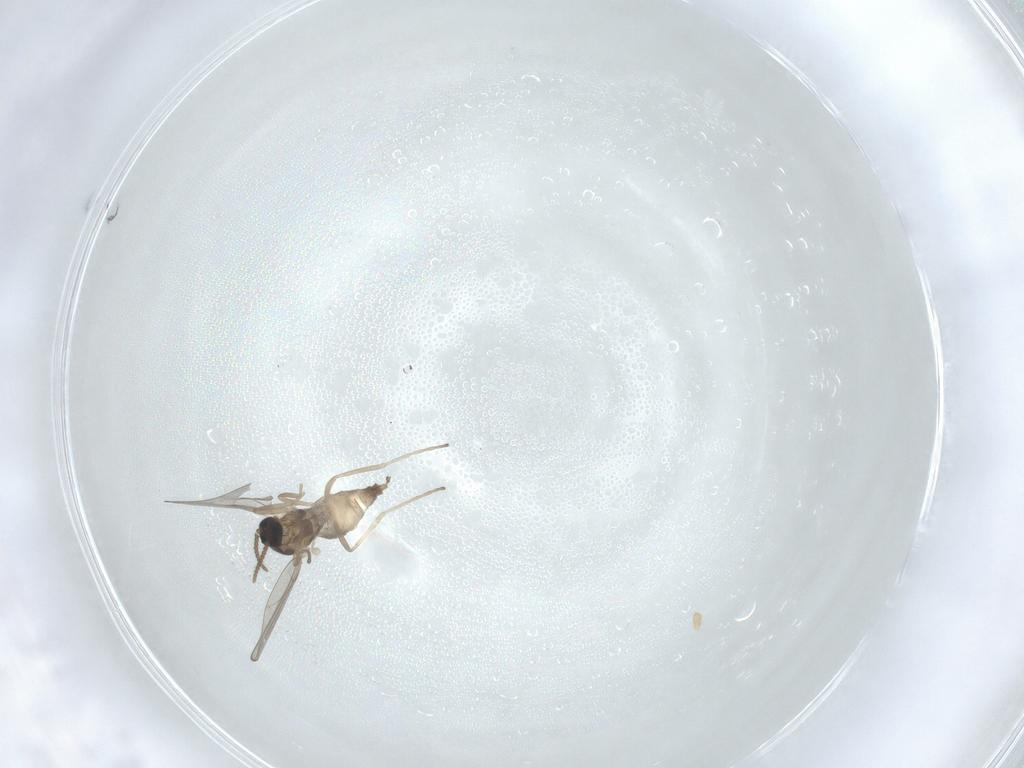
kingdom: Animalia
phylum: Arthropoda
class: Insecta
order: Diptera
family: Cecidomyiidae
